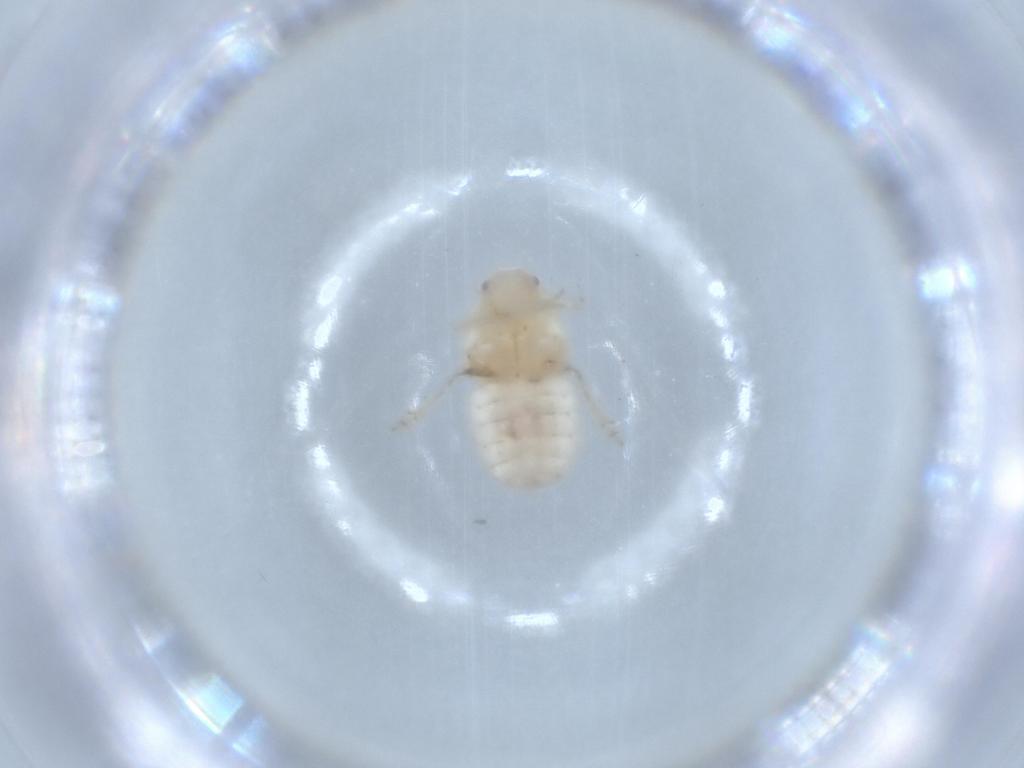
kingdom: Animalia
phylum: Arthropoda
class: Insecta
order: Hemiptera
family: Flatidae
